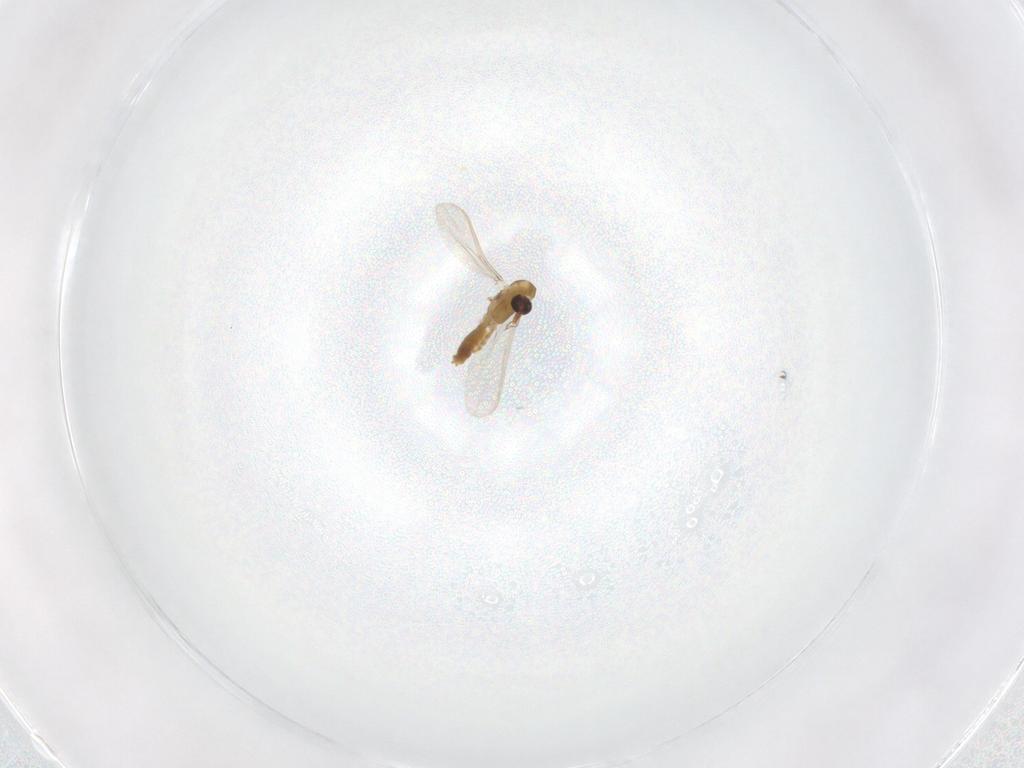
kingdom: Animalia
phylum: Arthropoda
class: Insecta
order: Diptera
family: Chironomidae
